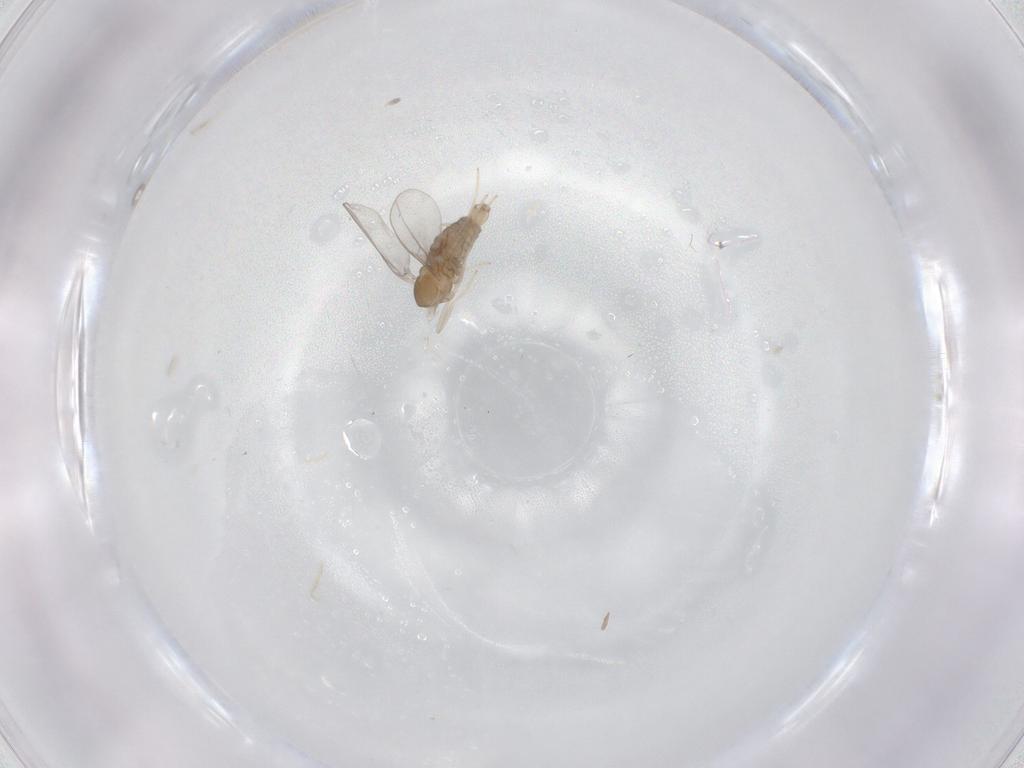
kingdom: Animalia
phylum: Arthropoda
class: Insecta
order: Diptera
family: Cecidomyiidae
